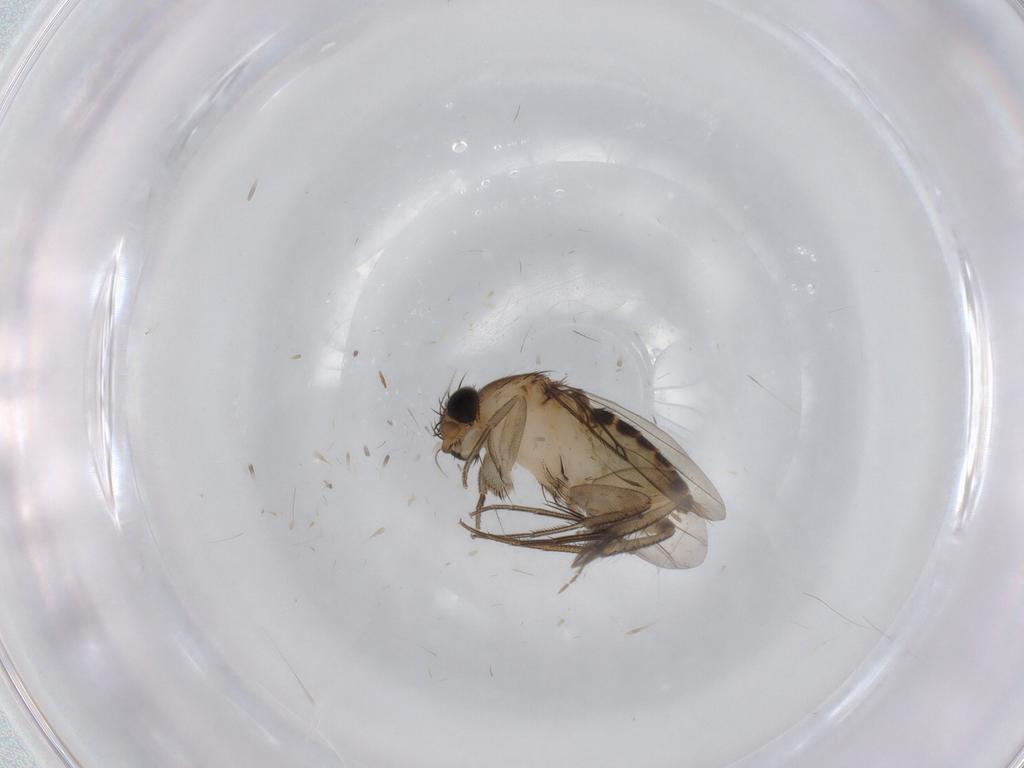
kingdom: Animalia
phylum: Arthropoda
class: Insecta
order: Diptera
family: Phoridae
